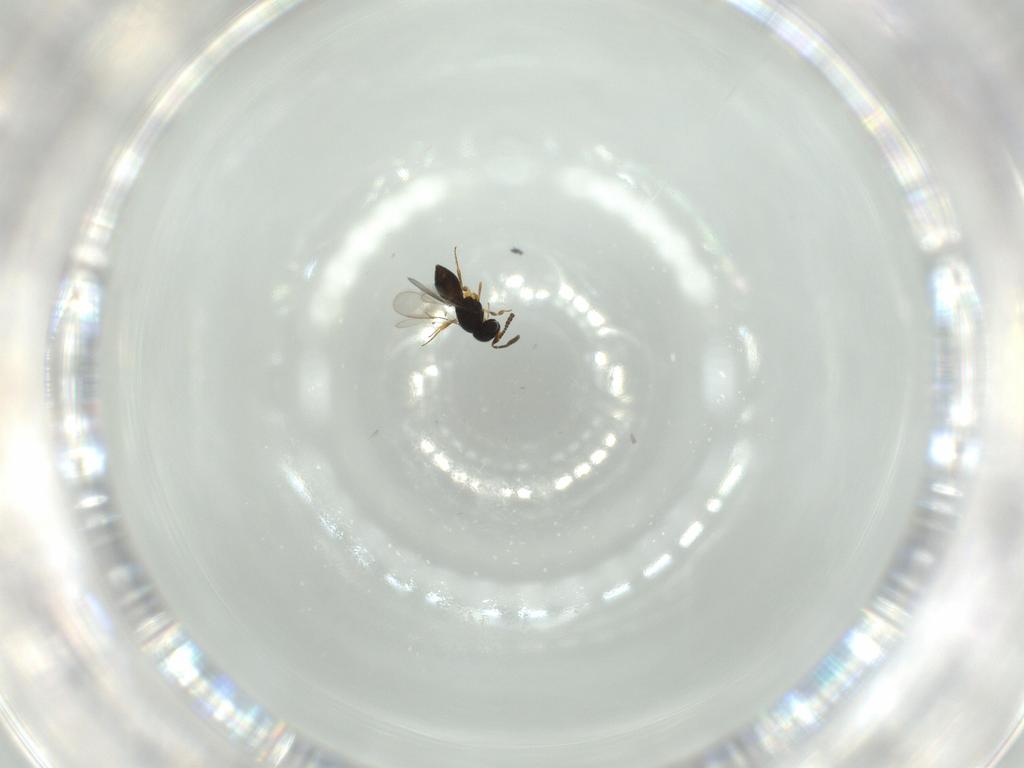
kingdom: Animalia
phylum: Arthropoda
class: Insecta
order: Hymenoptera
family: Scelionidae
